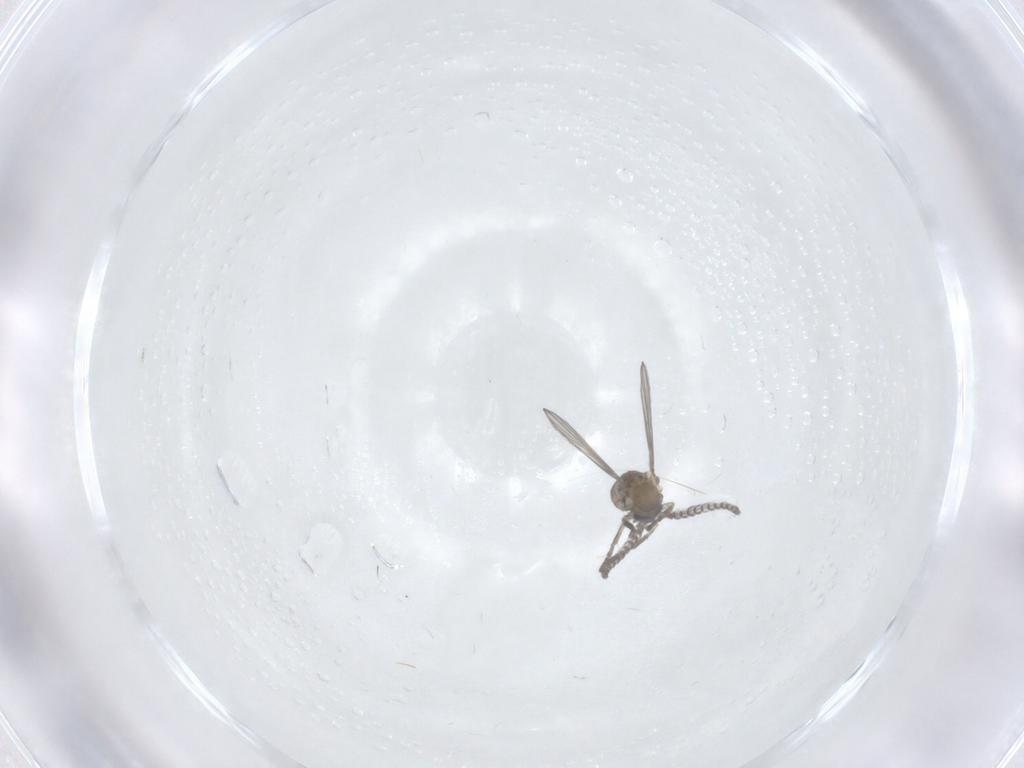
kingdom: Animalia
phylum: Arthropoda
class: Insecta
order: Diptera
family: Psychodidae
